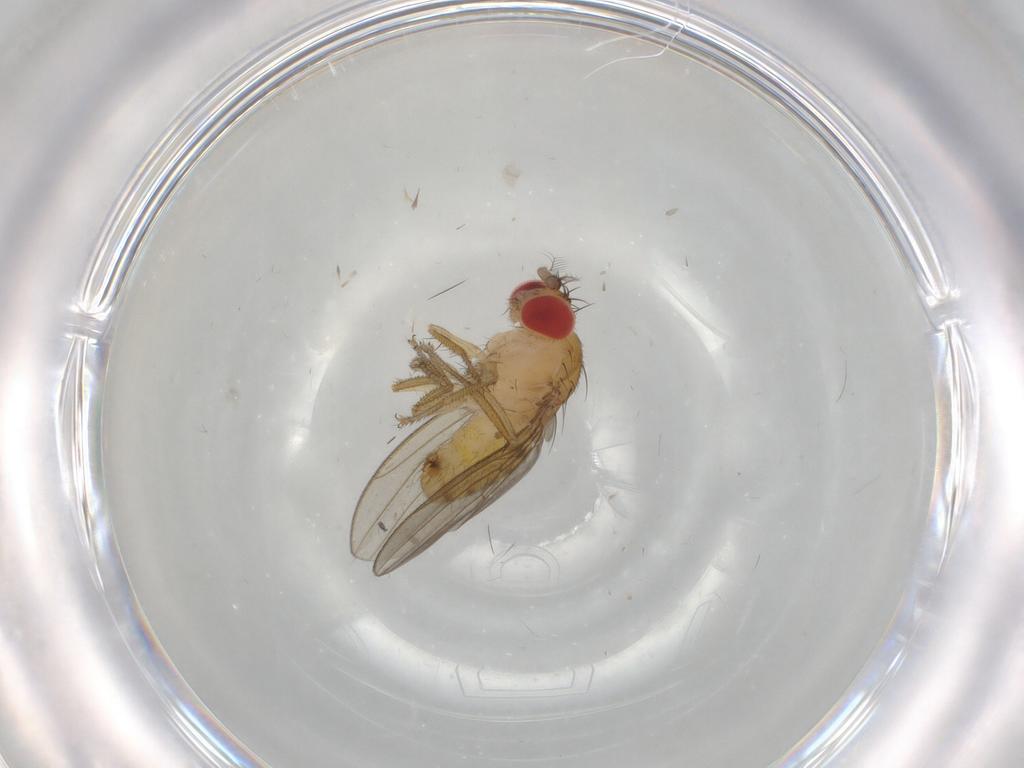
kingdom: Animalia
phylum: Arthropoda
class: Insecta
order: Diptera
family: Drosophilidae
